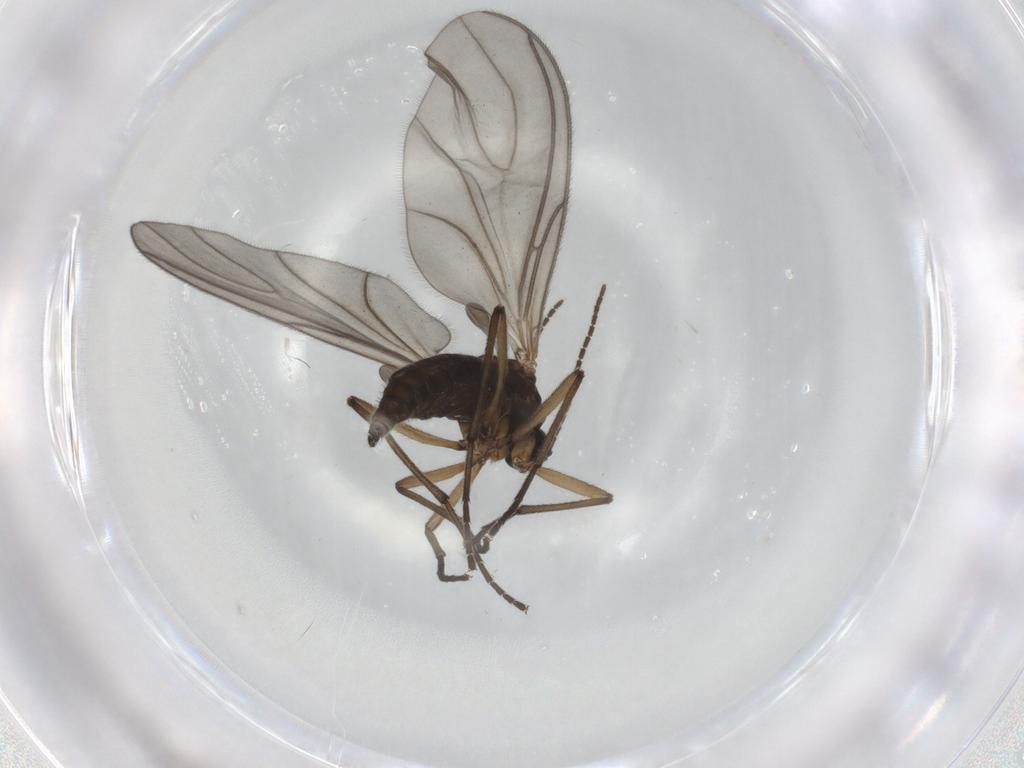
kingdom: Animalia
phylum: Arthropoda
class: Insecta
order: Diptera
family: Sciaridae
